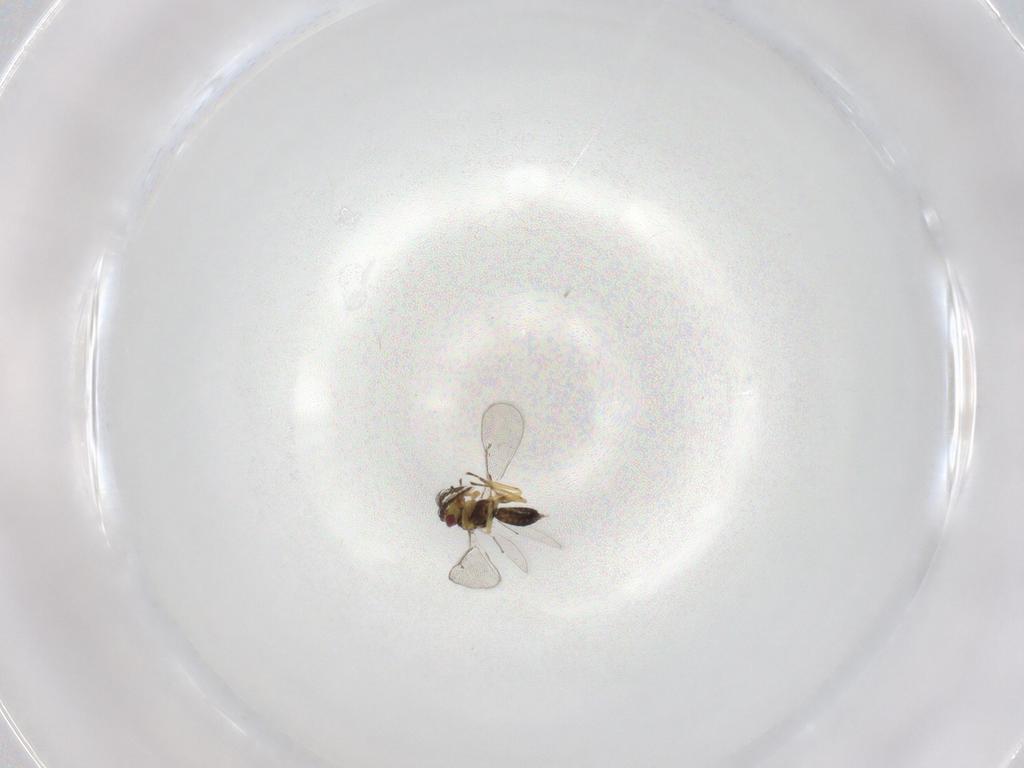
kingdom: Animalia
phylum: Arthropoda
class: Insecta
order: Hymenoptera
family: Eulophidae
